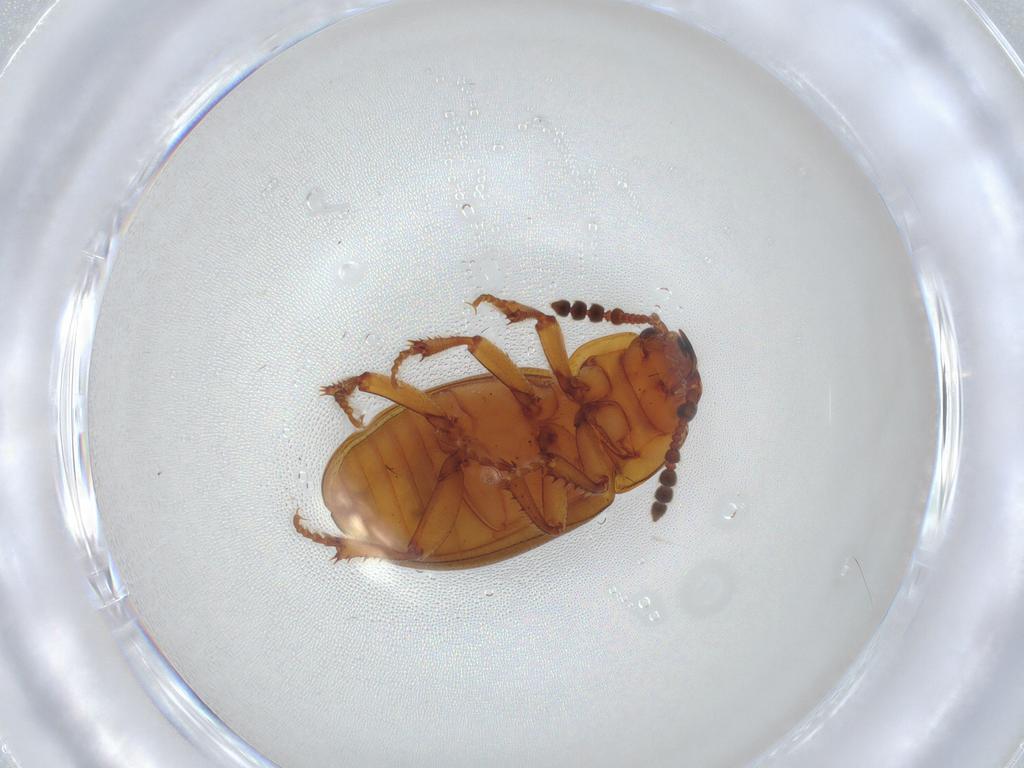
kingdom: Animalia
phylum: Arthropoda
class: Insecta
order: Coleoptera
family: Leiodidae
